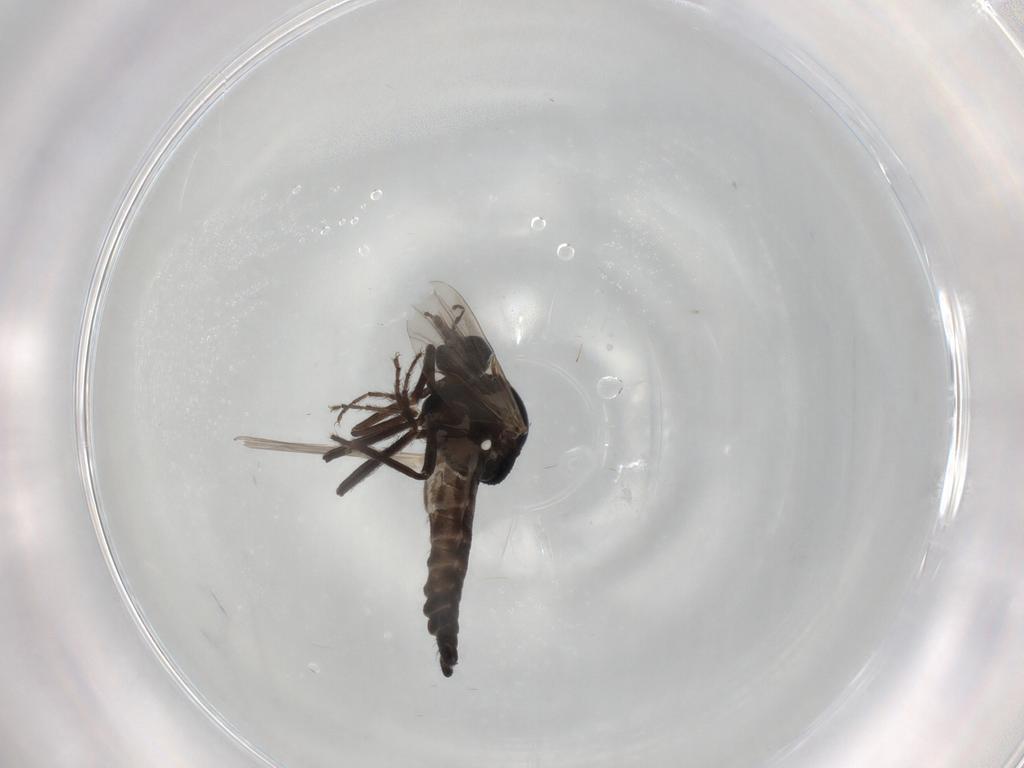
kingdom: Animalia
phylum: Arthropoda
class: Insecta
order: Diptera
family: Ceratopogonidae
